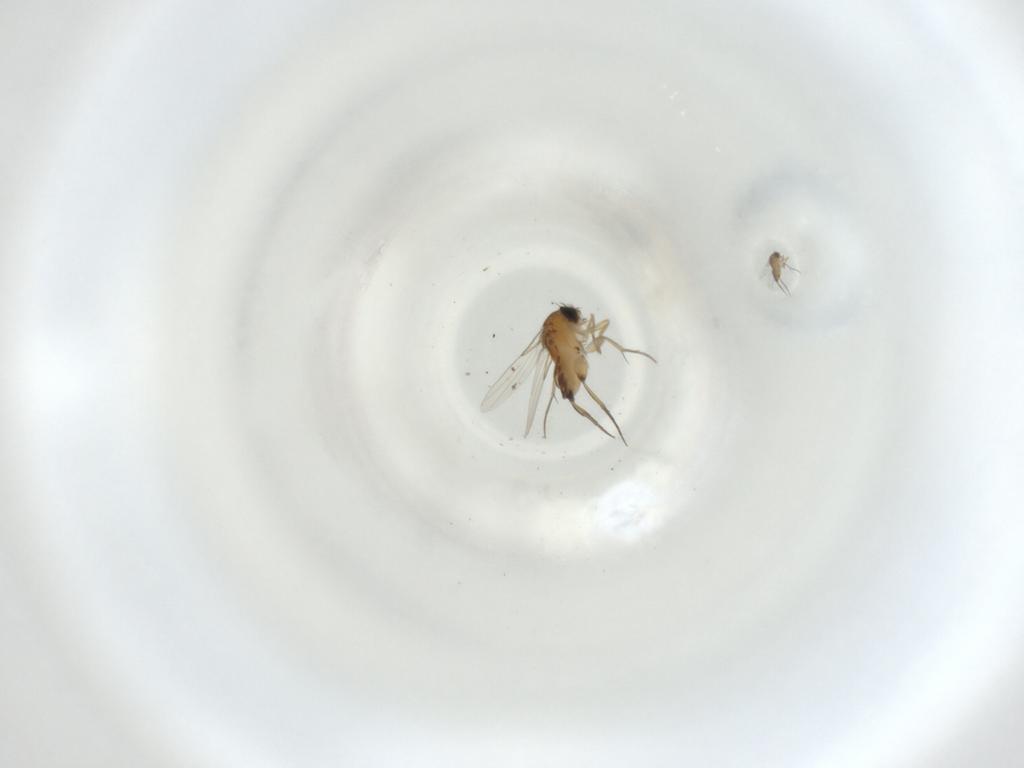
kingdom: Animalia
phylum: Arthropoda
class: Insecta
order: Diptera
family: Phoridae
